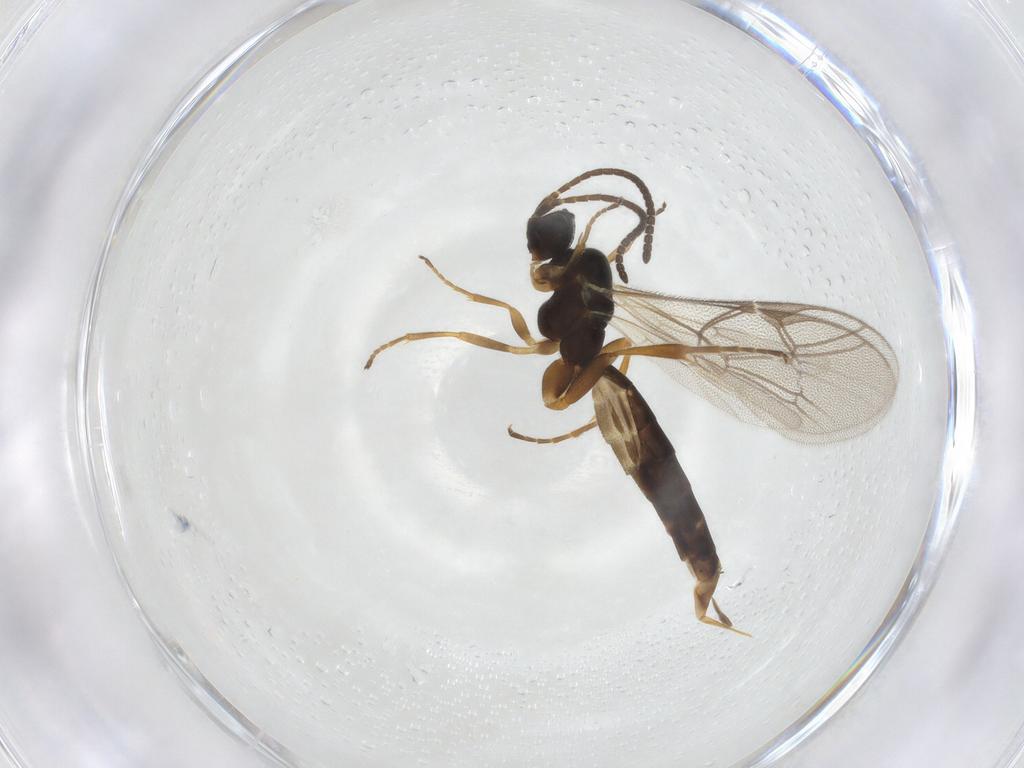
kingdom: Animalia
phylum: Arthropoda
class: Insecta
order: Hymenoptera
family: Ichneumonidae
